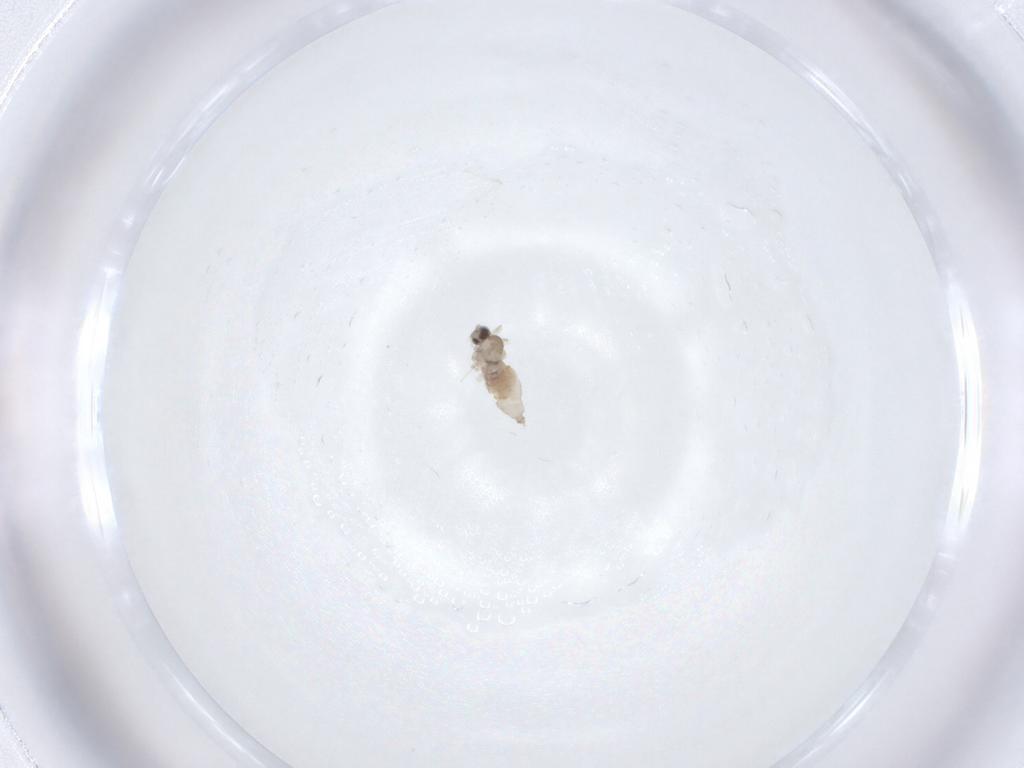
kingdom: Animalia
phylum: Arthropoda
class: Insecta
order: Diptera
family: Cecidomyiidae
